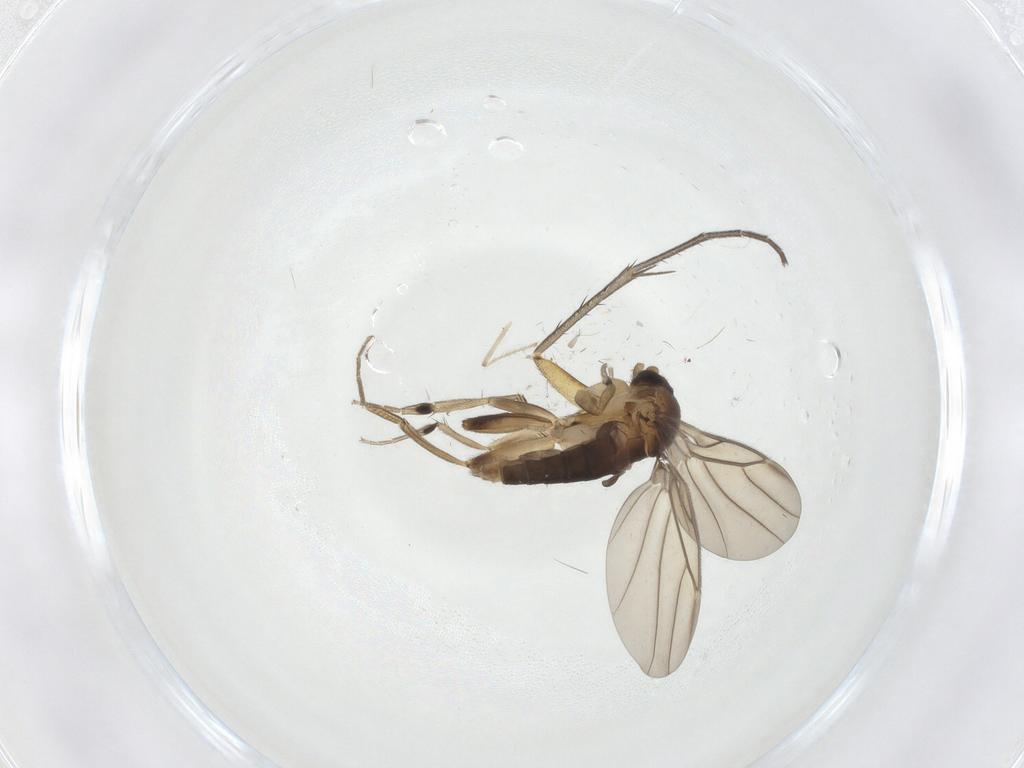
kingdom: Animalia
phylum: Arthropoda
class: Insecta
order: Diptera
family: Phoridae
